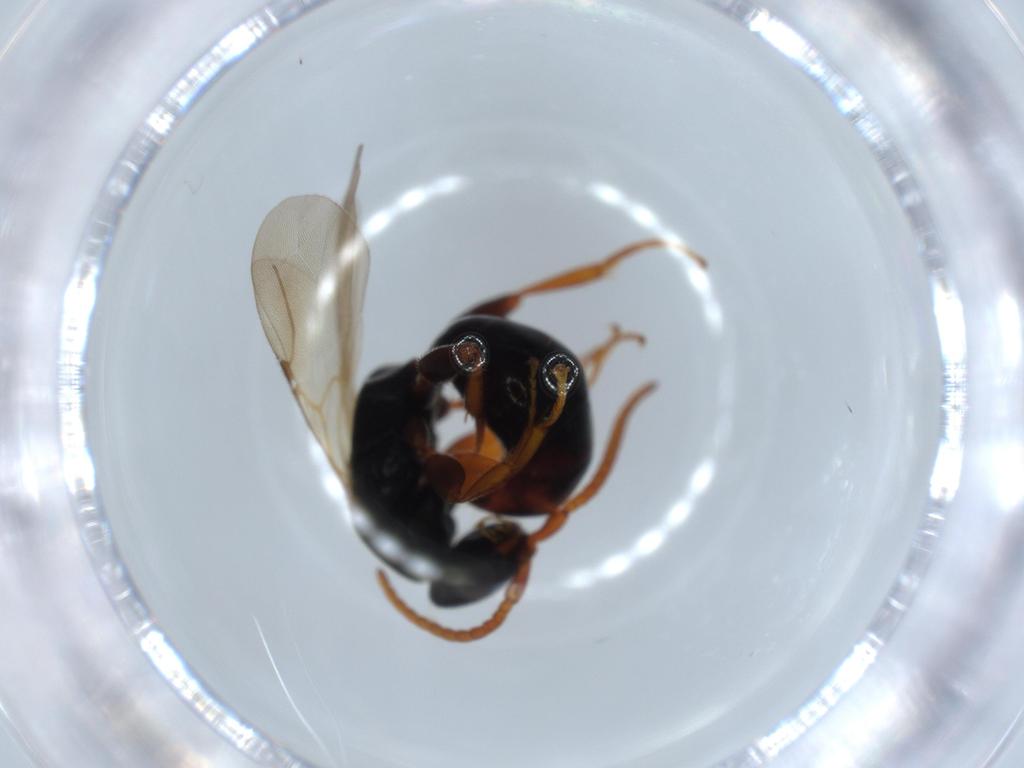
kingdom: Animalia
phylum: Arthropoda
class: Insecta
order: Hymenoptera
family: Bethylidae
